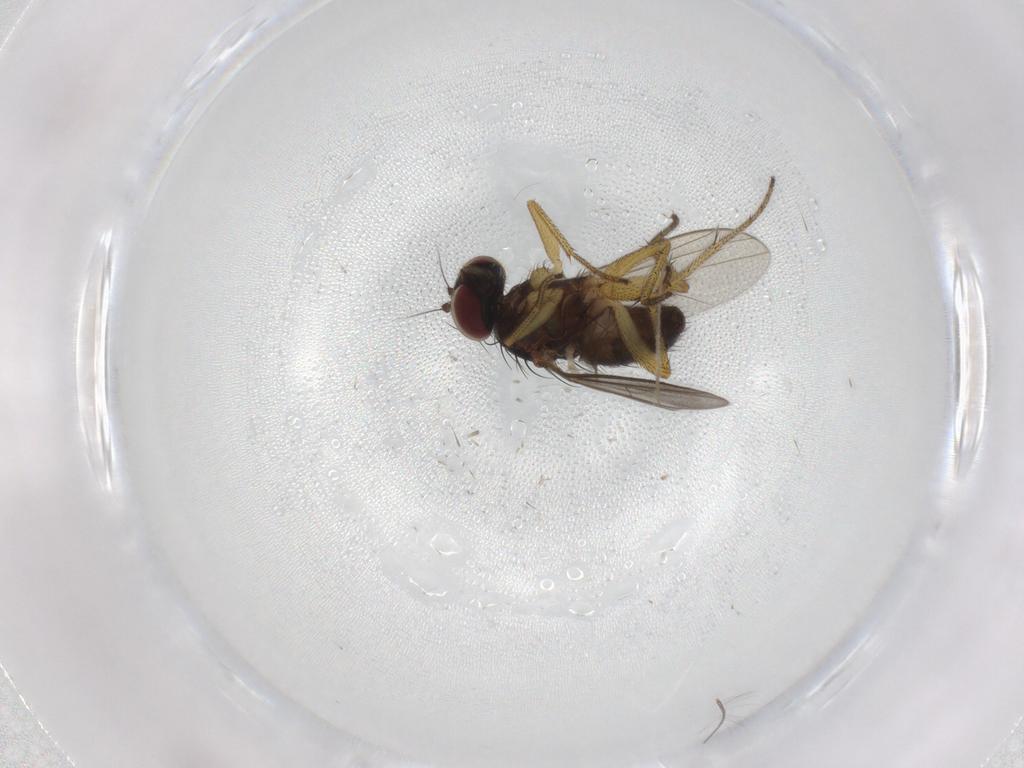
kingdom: Animalia
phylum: Arthropoda
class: Insecta
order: Diptera
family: Chironomidae
